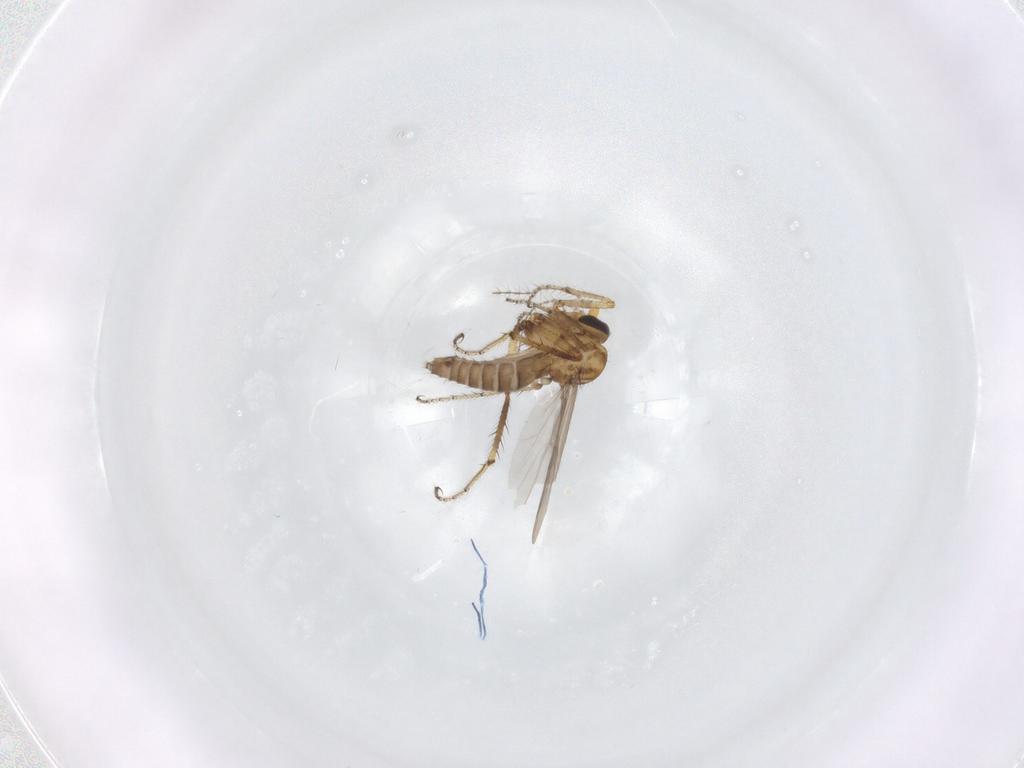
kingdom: Animalia
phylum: Arthropoda
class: Insecta
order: Diptera
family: Ceratopogonidae
